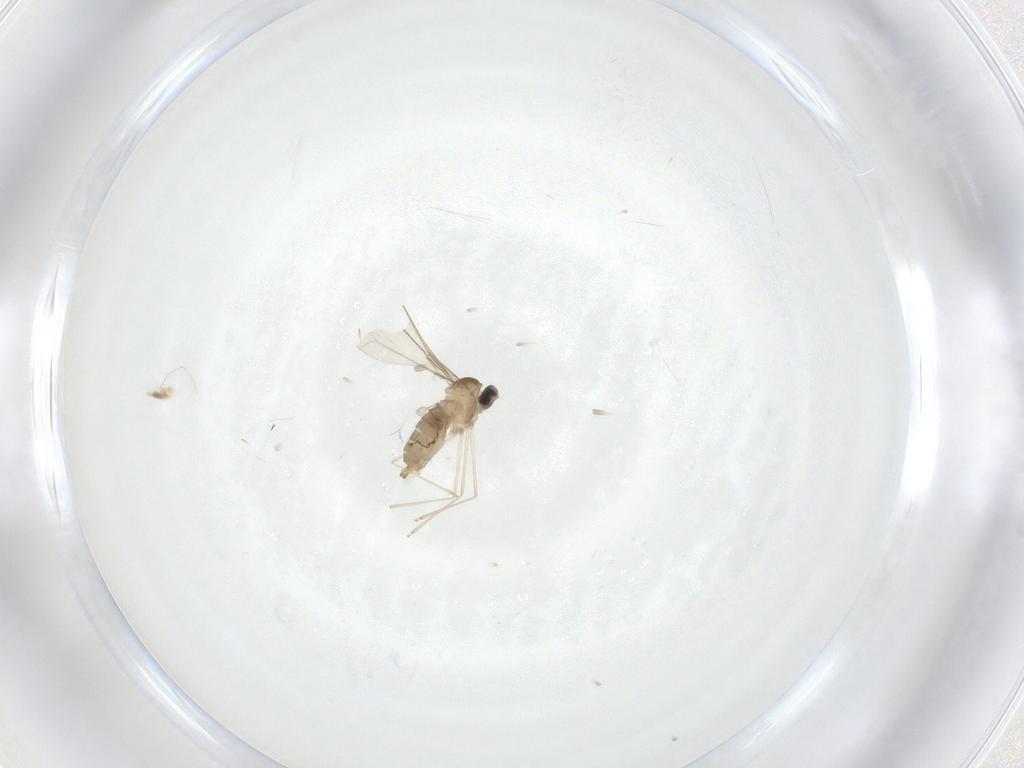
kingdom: Animalia
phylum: Arthropoda
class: Insecta
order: Diptera
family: Cecidomyiidae
